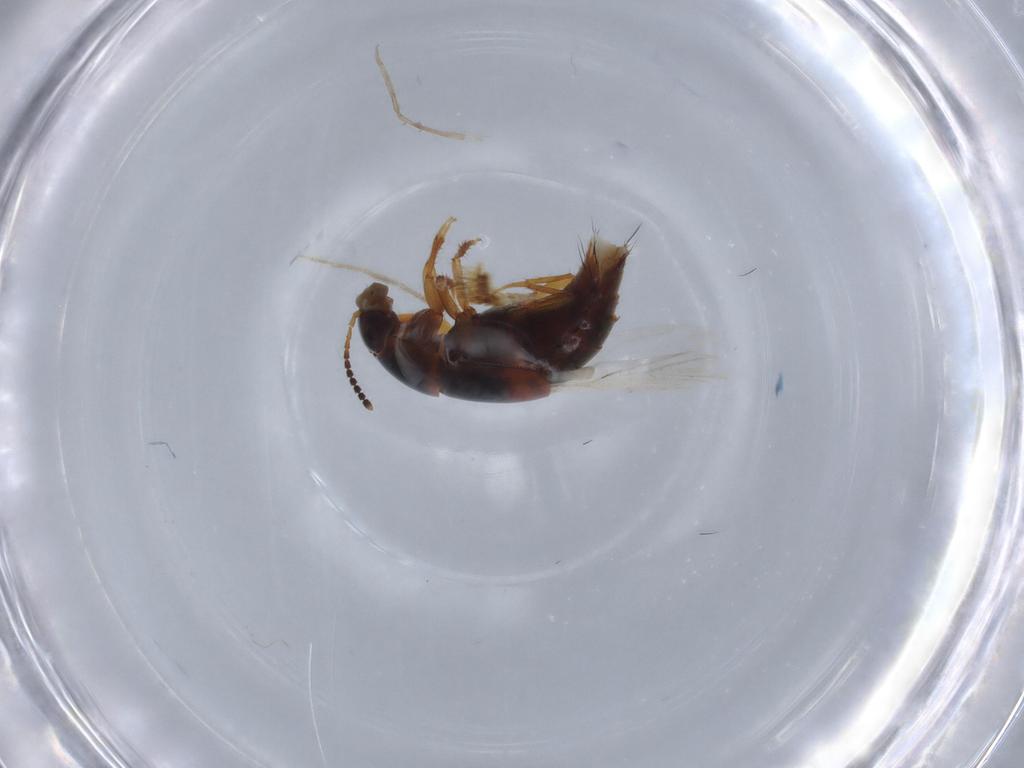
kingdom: Animalia
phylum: Arthropoda
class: Insecta
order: Coleoptera
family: Staphylinidae
